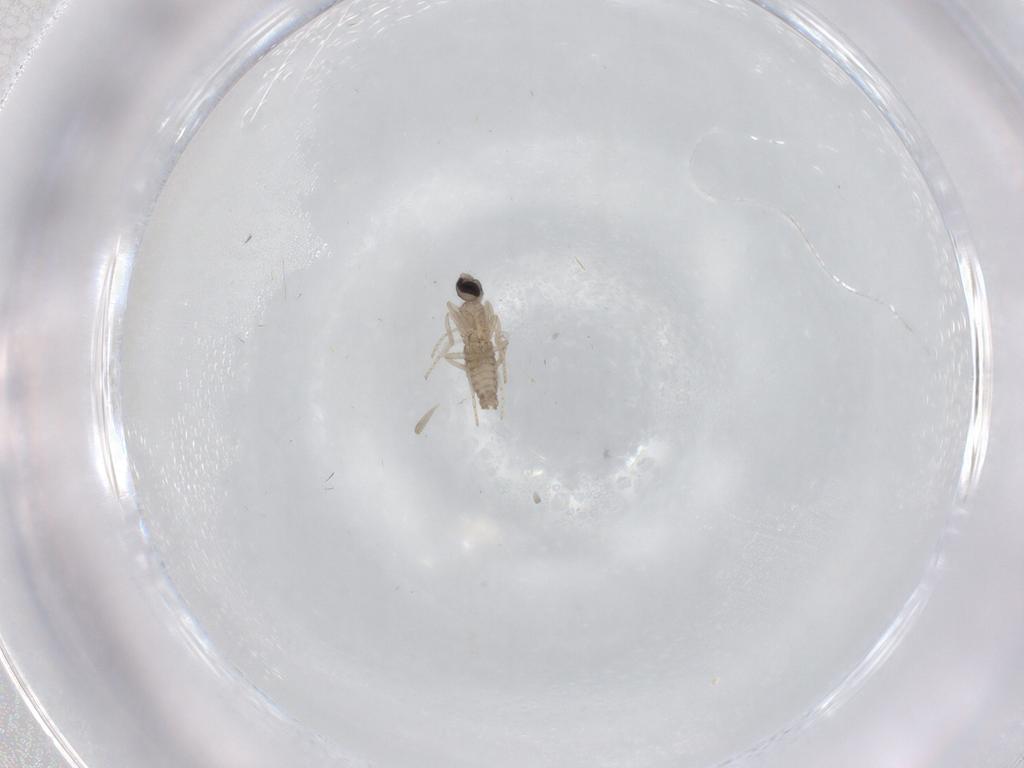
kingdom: Animalia
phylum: Arthropoda
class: Insecta
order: Diptera
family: Cecidomyiidae
